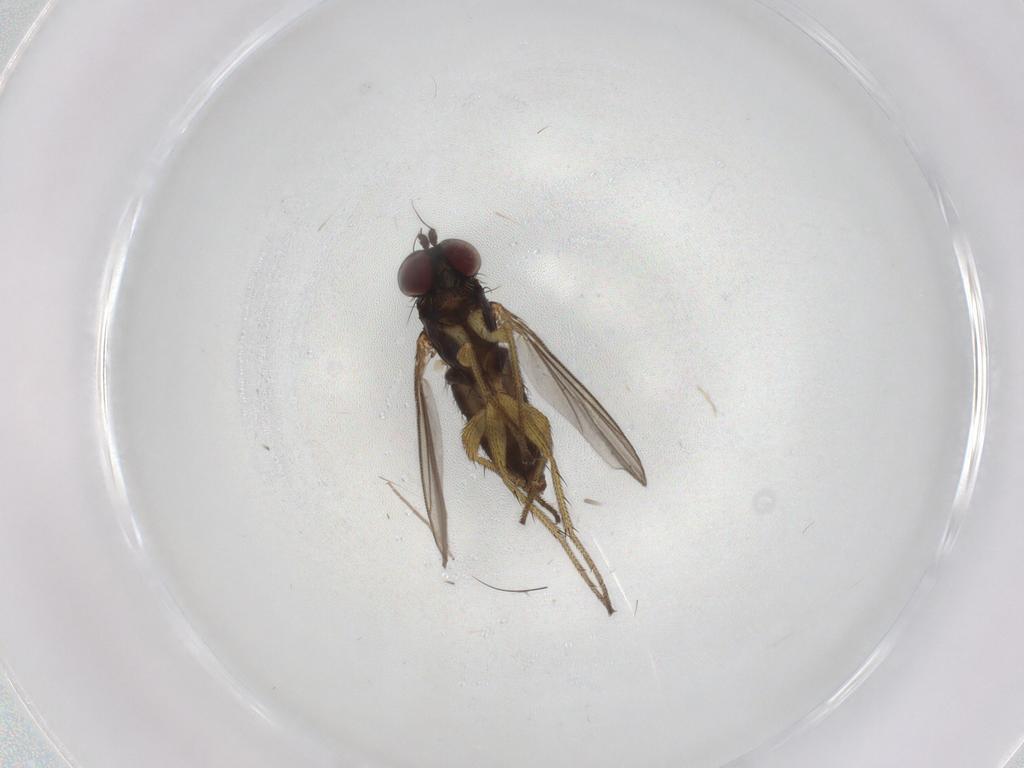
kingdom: Animalia
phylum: Arthropoda
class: Insecta
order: Diptera
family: Dolichopodidae
